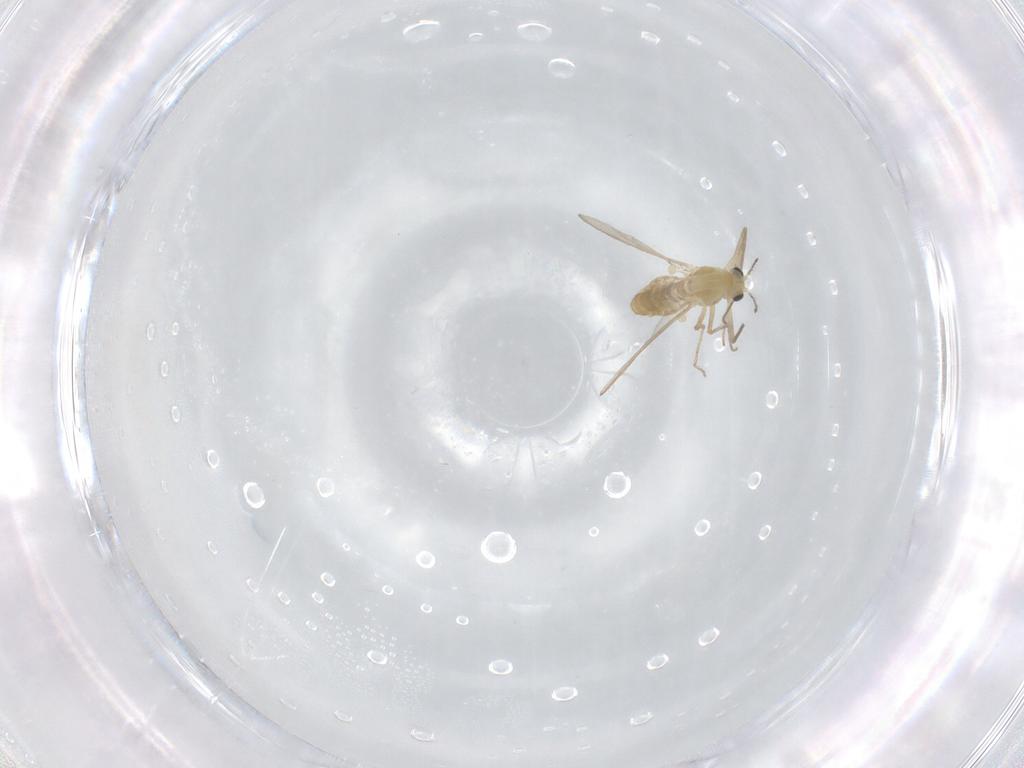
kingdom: Animalia
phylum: Arthropoda
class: Insecta
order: Diptera
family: Chironomidae
